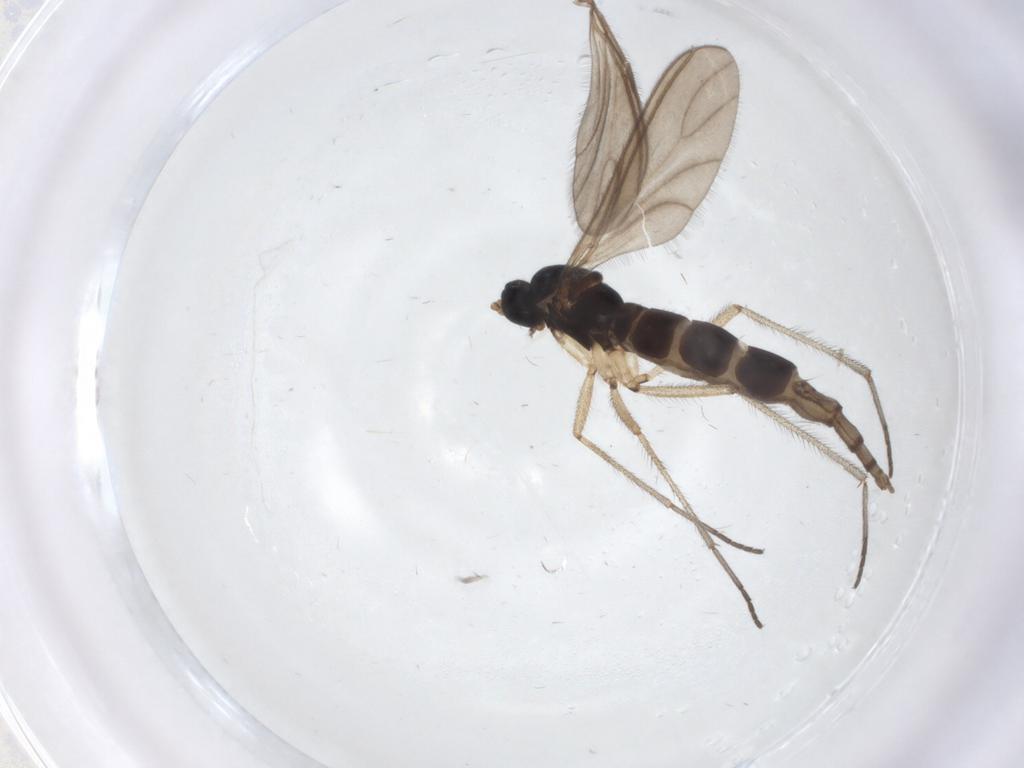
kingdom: Animalia
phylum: Arthropoda
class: Insecta
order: Diptera
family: Sciaridae
